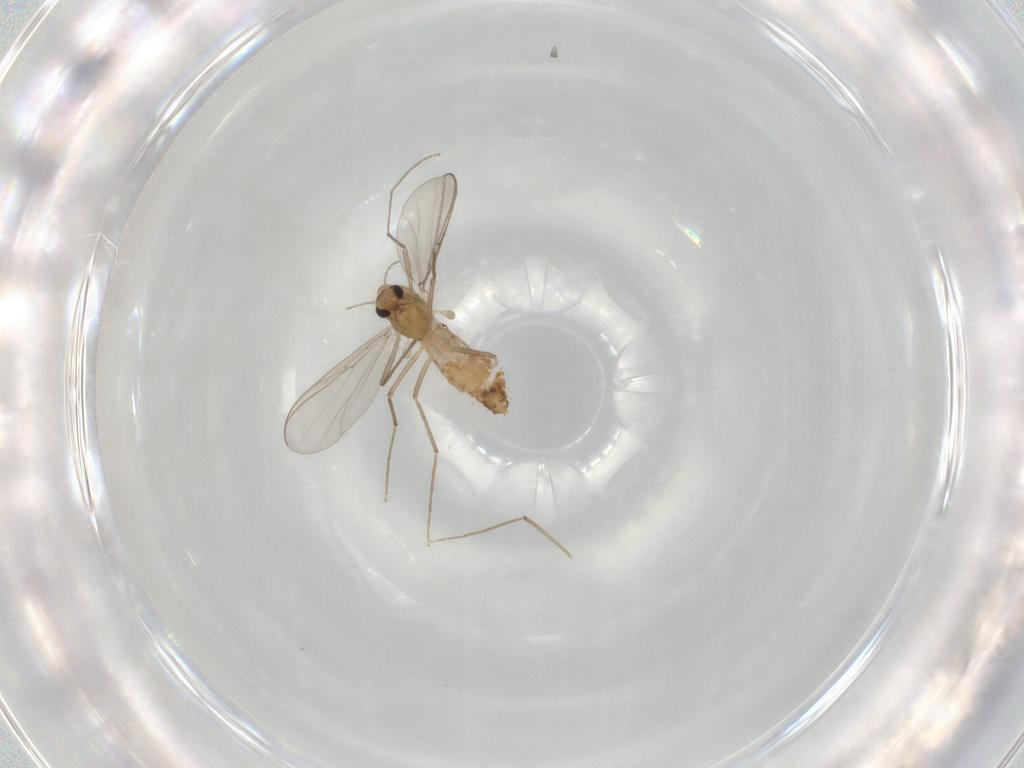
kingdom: Animalia
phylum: Arthropoda
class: Insecta
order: Diptera
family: Chironomidae
